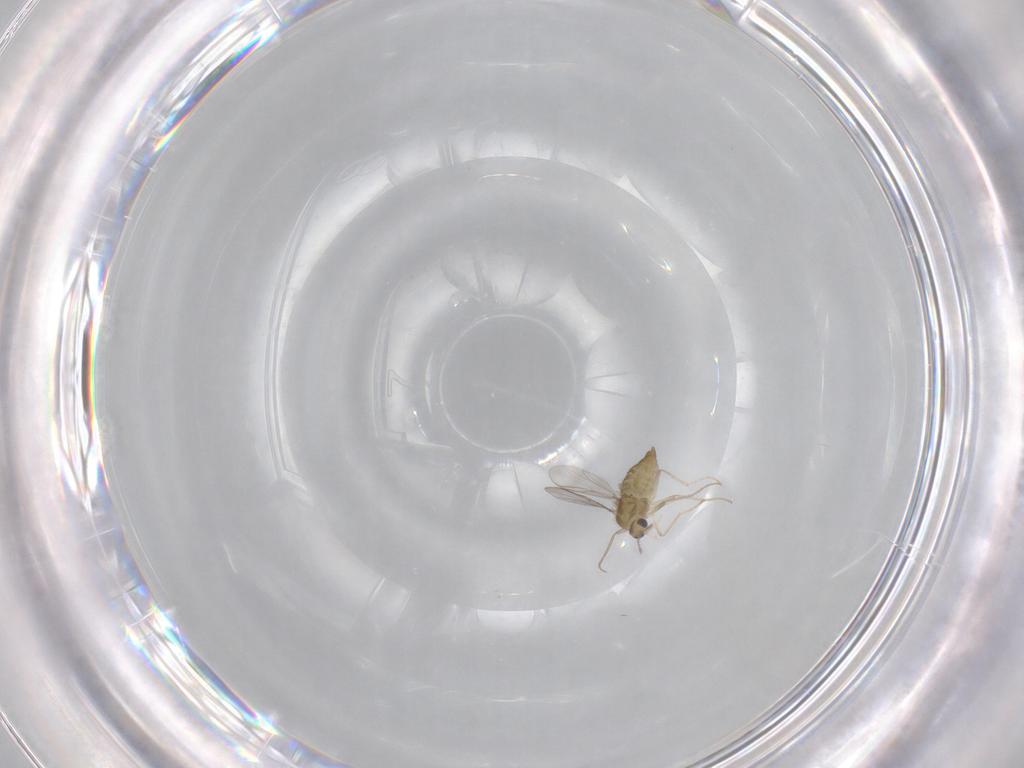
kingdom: Animalia
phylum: Arthropoda
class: Insecta
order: Diptera
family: Chironomidae
